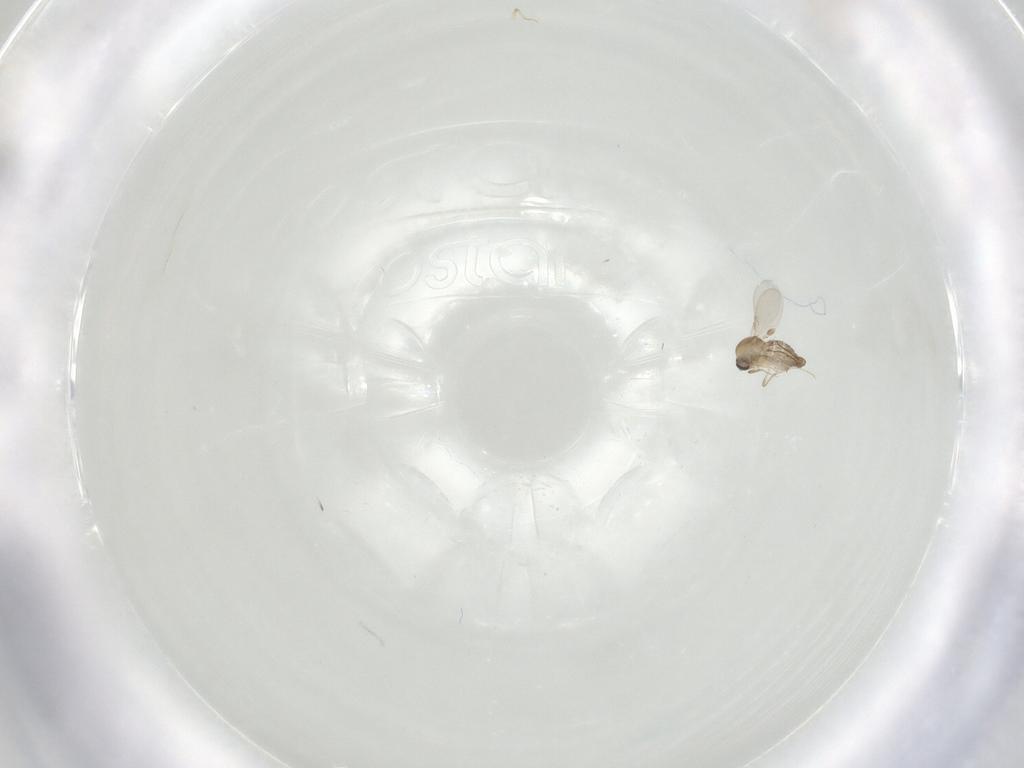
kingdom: Animalia
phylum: Arthropoda
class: Insecta
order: Diptera
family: Ceratopogonidae
